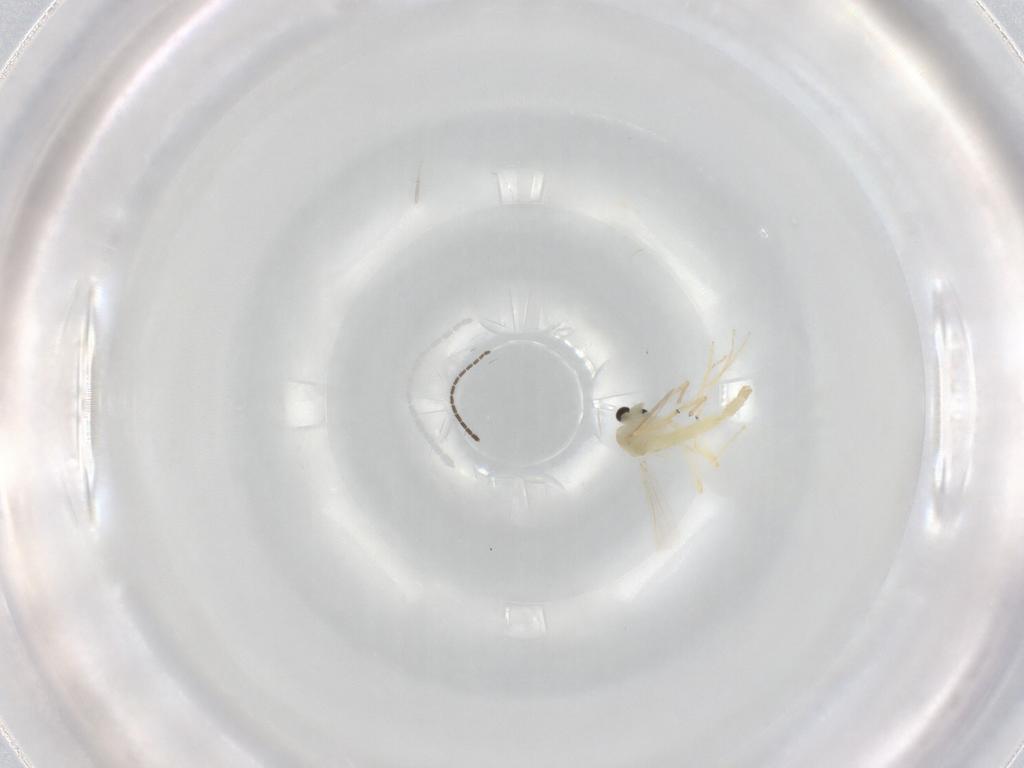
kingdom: Animalia
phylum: Arthropoda
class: Insecta
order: Diptera
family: Chironomidae
